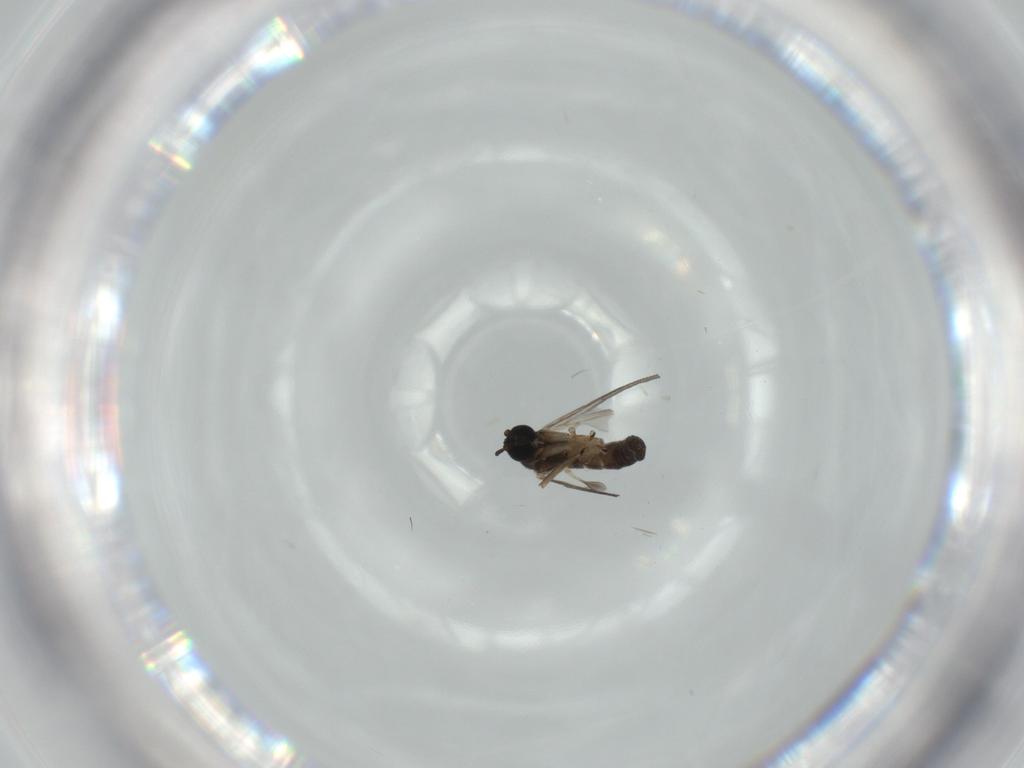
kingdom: Animalia
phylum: Arthropoda
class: Insecta
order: Diptera
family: Sciaridae
